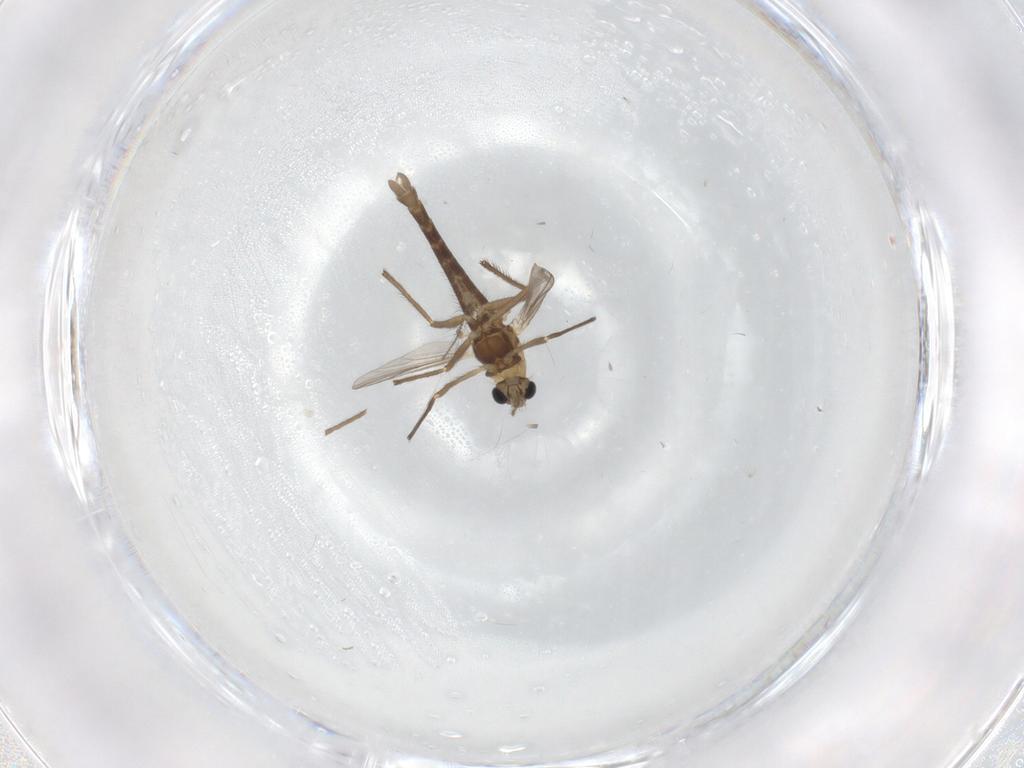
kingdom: Animalia
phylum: Arthropoda
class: Insecta
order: Diptera
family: Chironomidae
